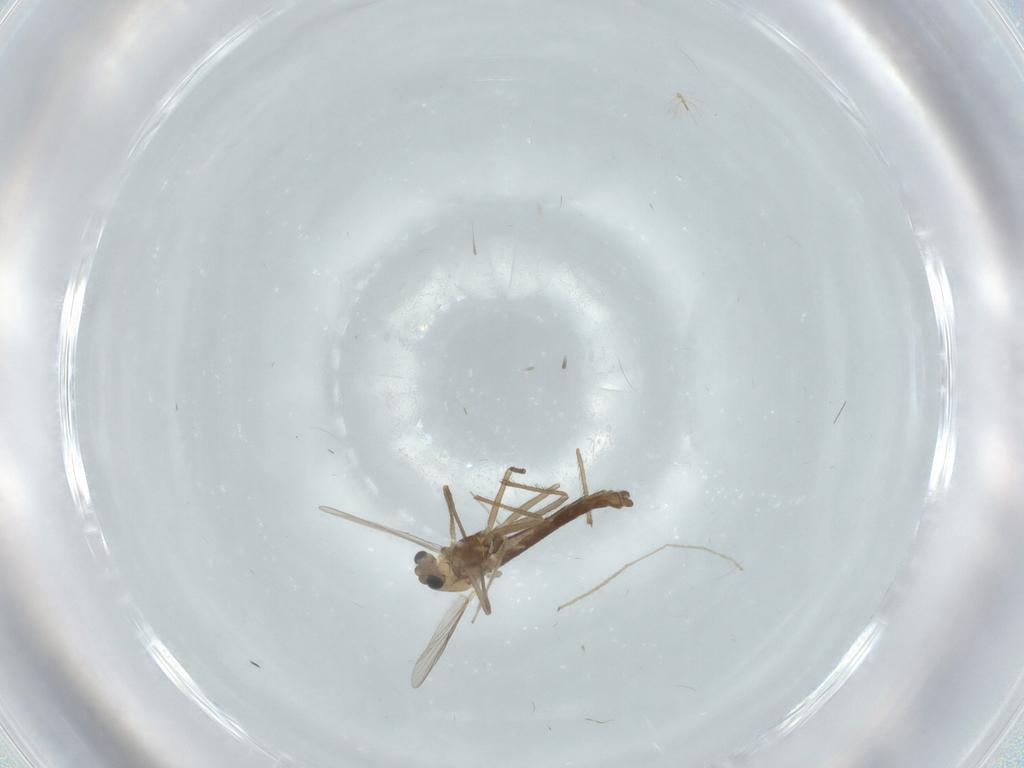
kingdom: Animalia
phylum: Arthropoda
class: Insecta
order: Diptera
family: Chironomidae
